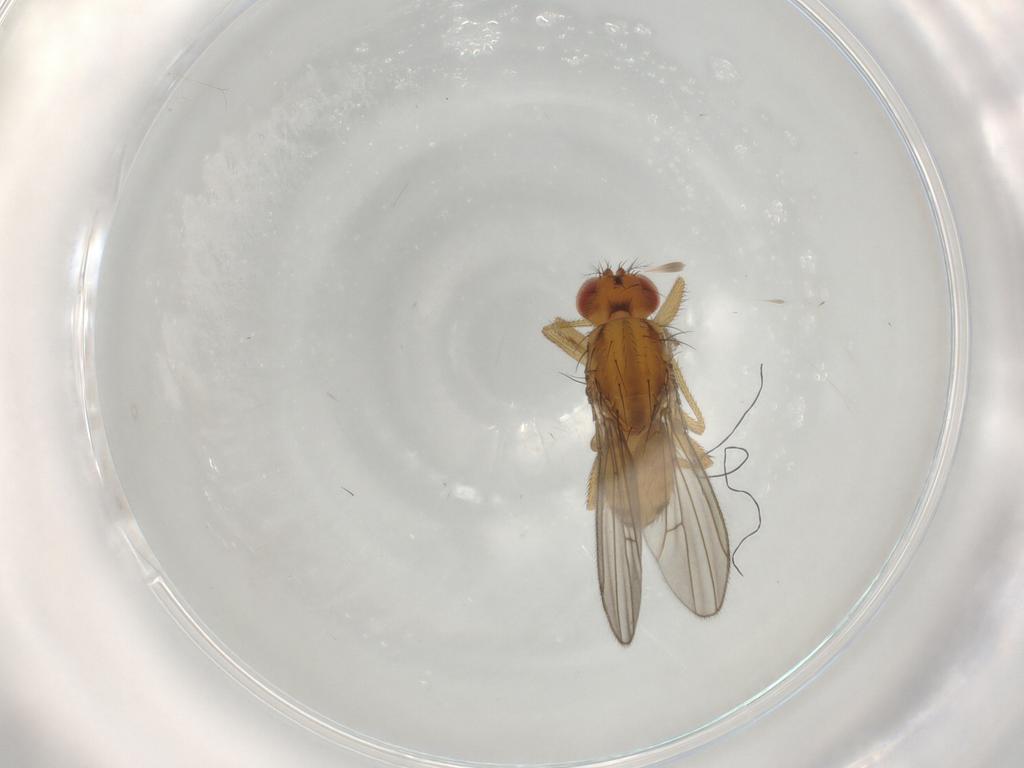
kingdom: Animalia
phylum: Arthropoda
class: Insecta
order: Diptera
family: Drosophilidae
